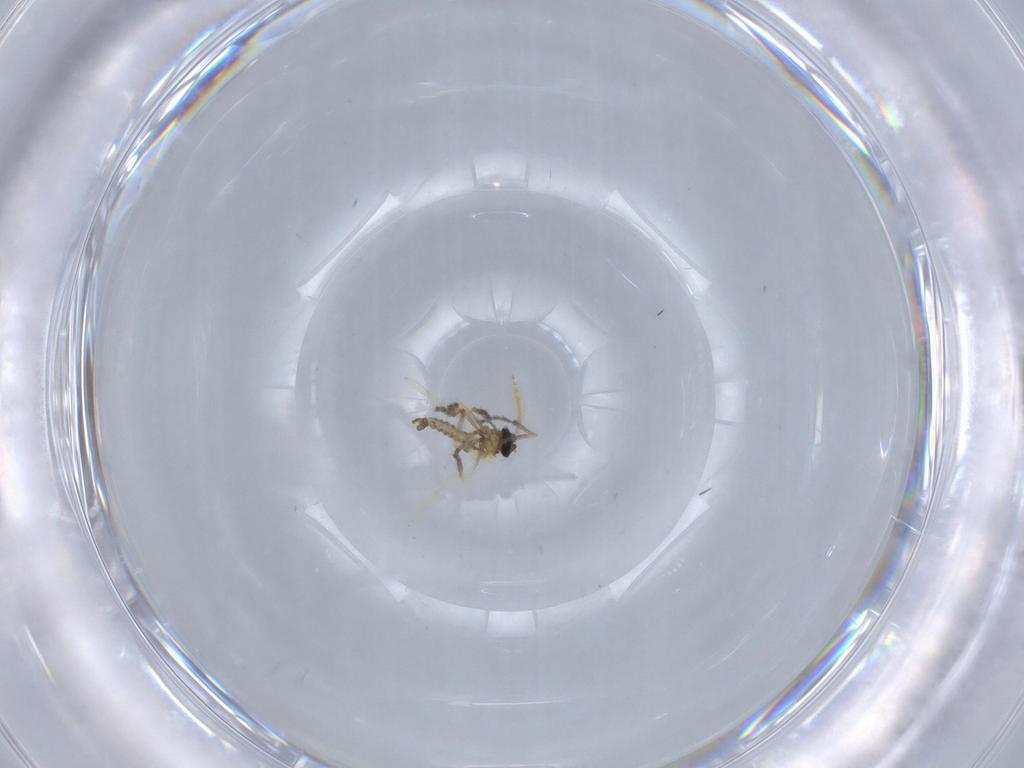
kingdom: Animalia
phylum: Arthropoda
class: Insecta
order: Diptera
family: Ceratopogonidae
